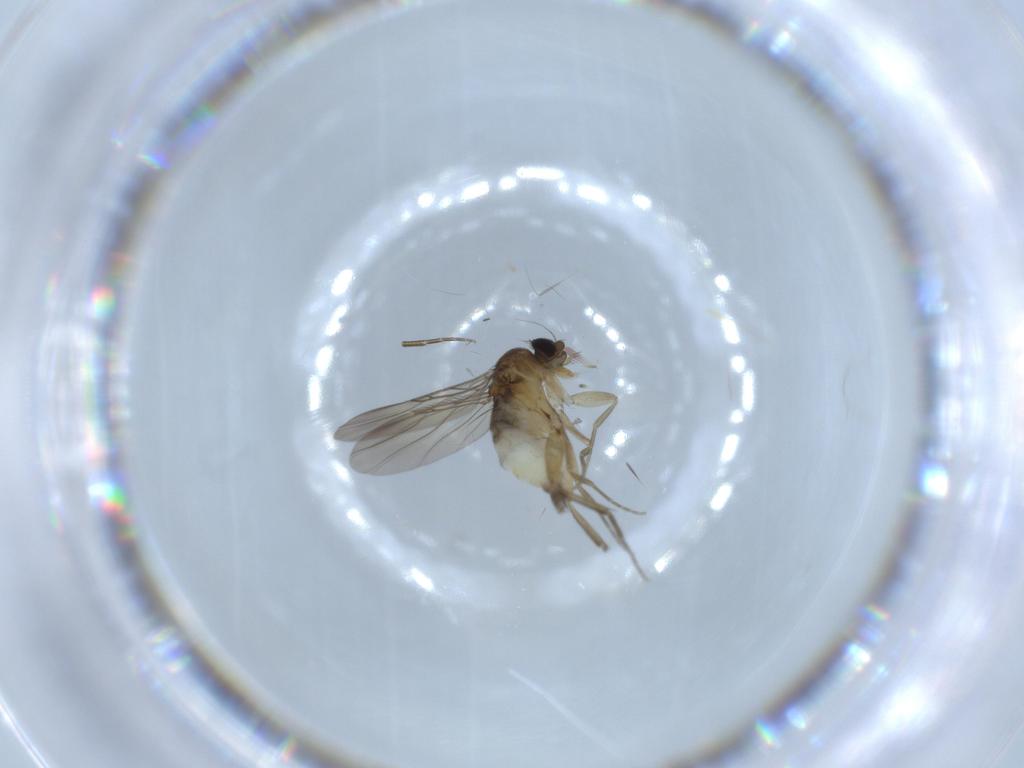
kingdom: Animalia
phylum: Arthropoda
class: Insecta
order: Diptera
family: Phoridae
